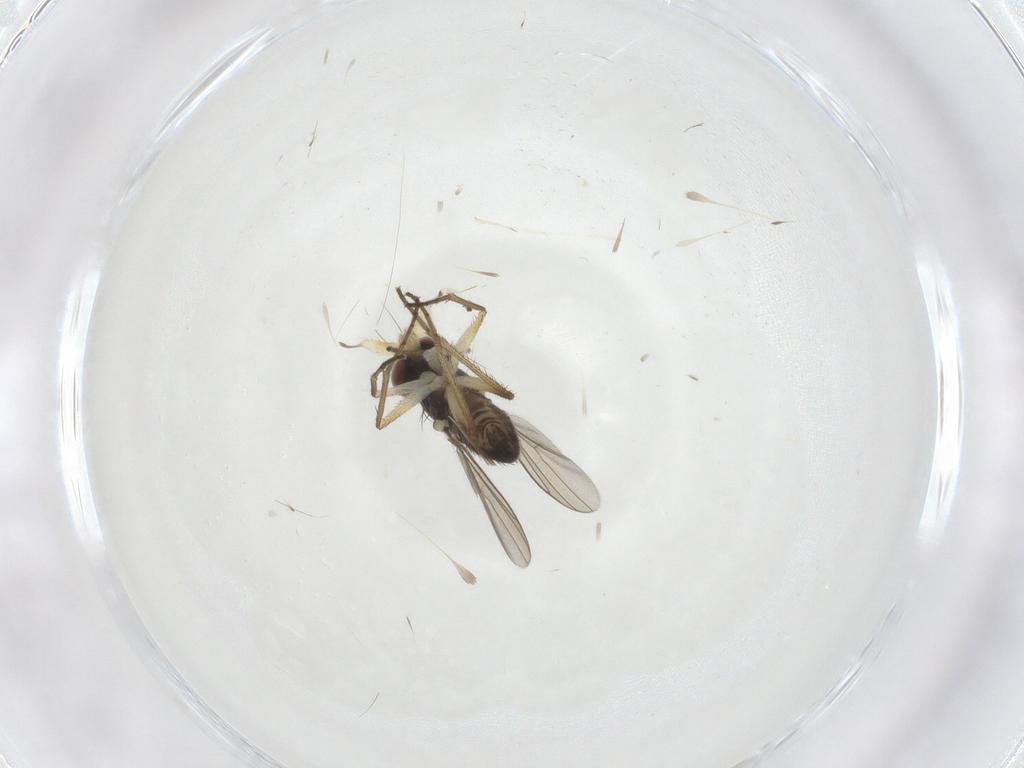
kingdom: Animalia
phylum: Arthropoda
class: Insecta
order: Diptera
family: Dolichopodidae
